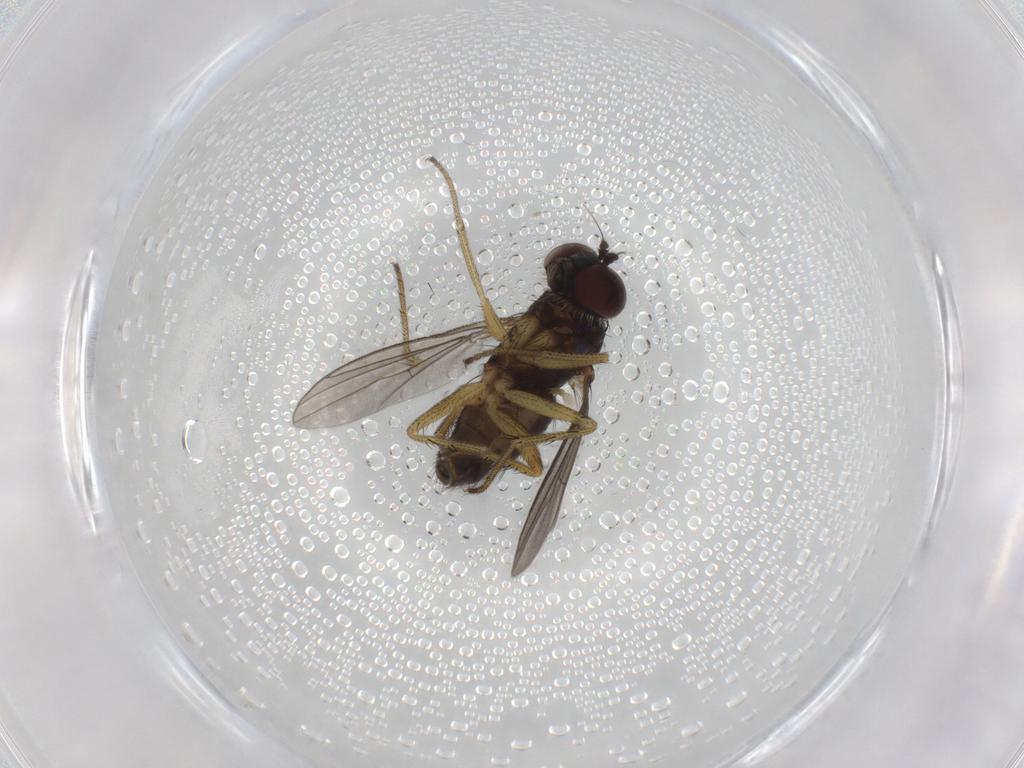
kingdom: Animalia
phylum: Arthropoda
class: Insecta
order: Diptera
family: Dolichopodidae
